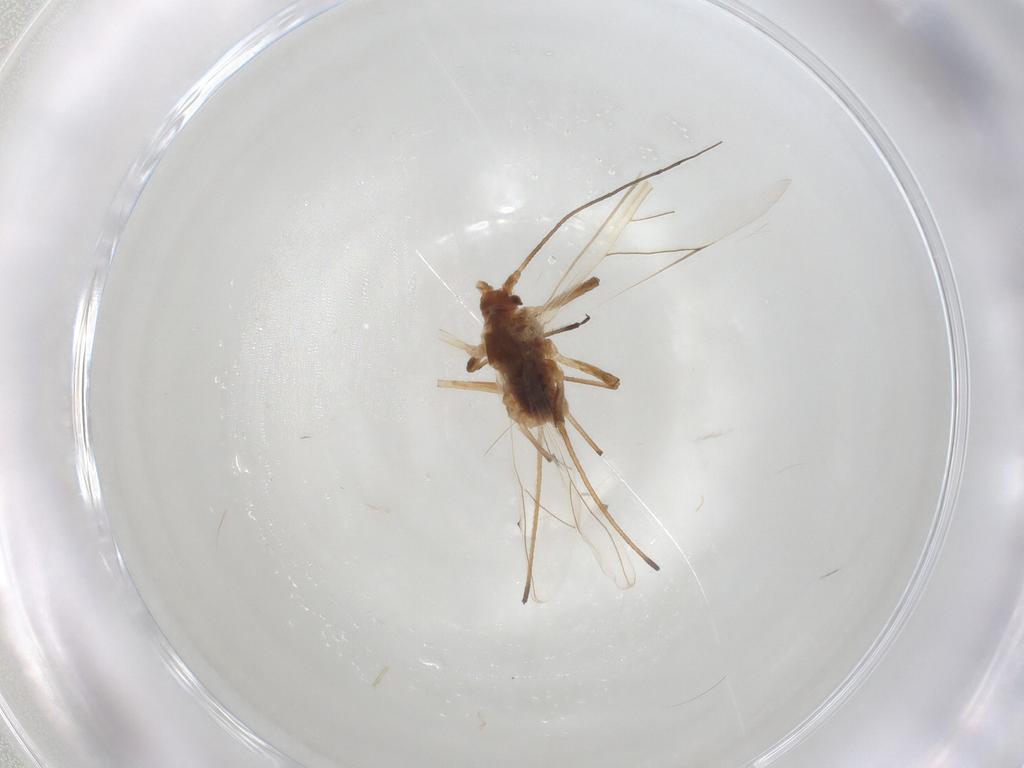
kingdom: Animalia
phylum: Arthropoda
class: Insecta
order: Hemiptera
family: Aphididae
